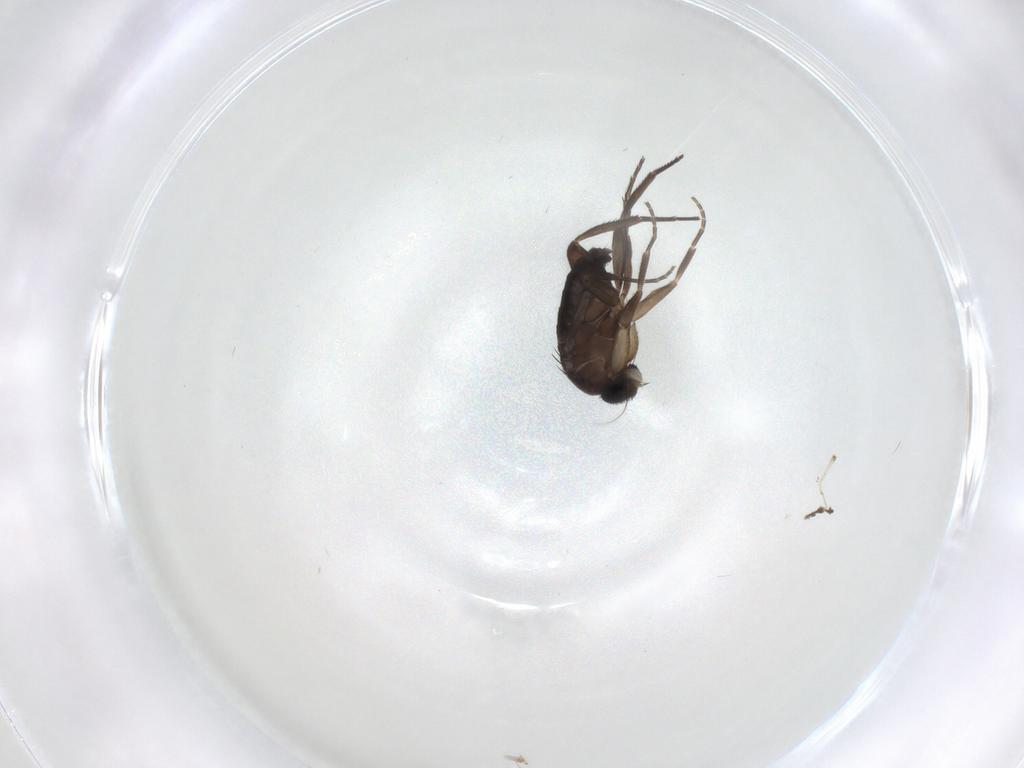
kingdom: Animalia
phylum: Arthropoda
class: Insecta
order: Diptera
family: Phoridae
